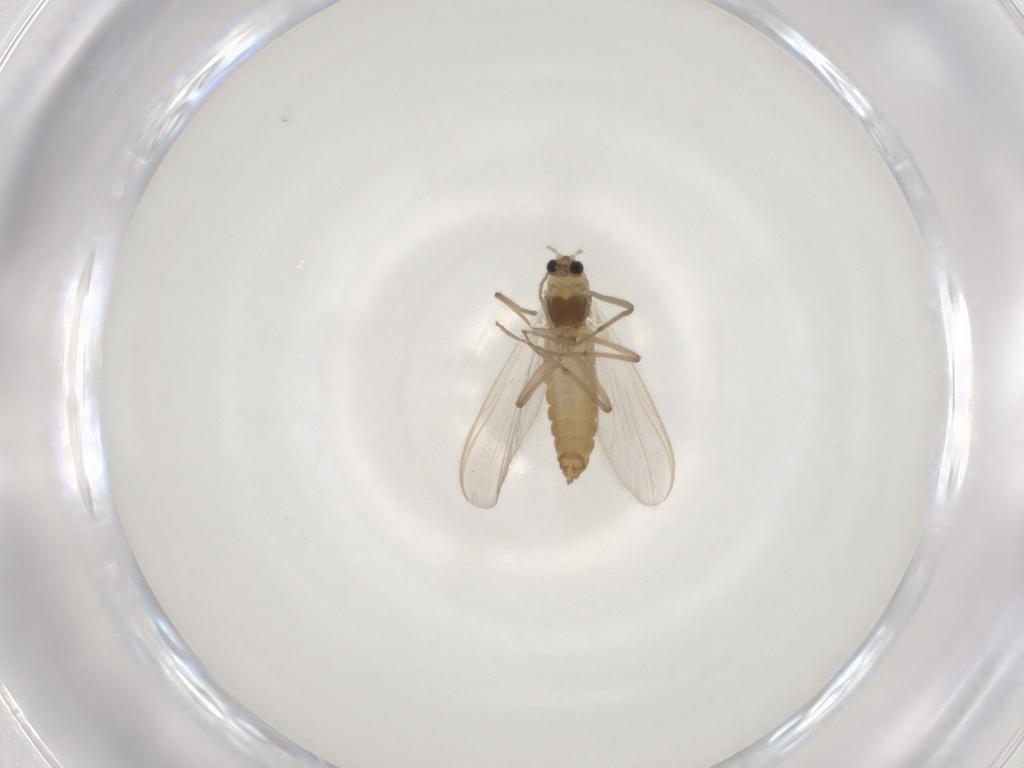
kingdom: Animalia
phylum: Arthropoda
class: Insecta
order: Diptera
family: Chironomidae
